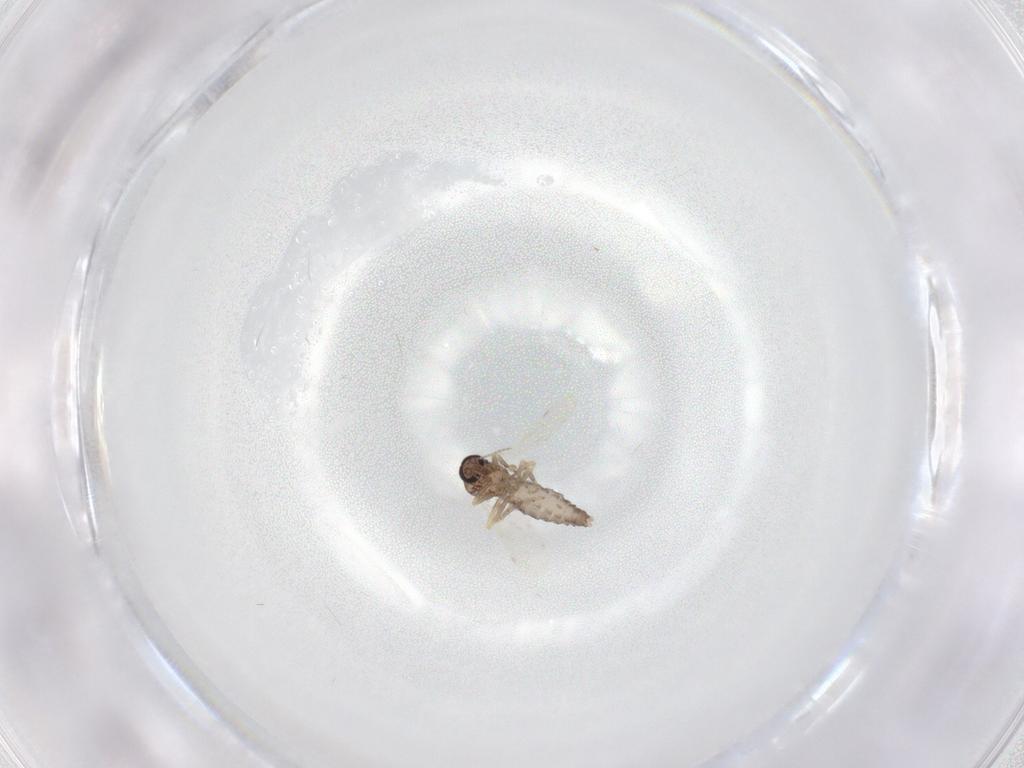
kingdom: Animalia
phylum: Arthropoda
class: Insecta
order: Diptera
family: Ceratopogonidae
